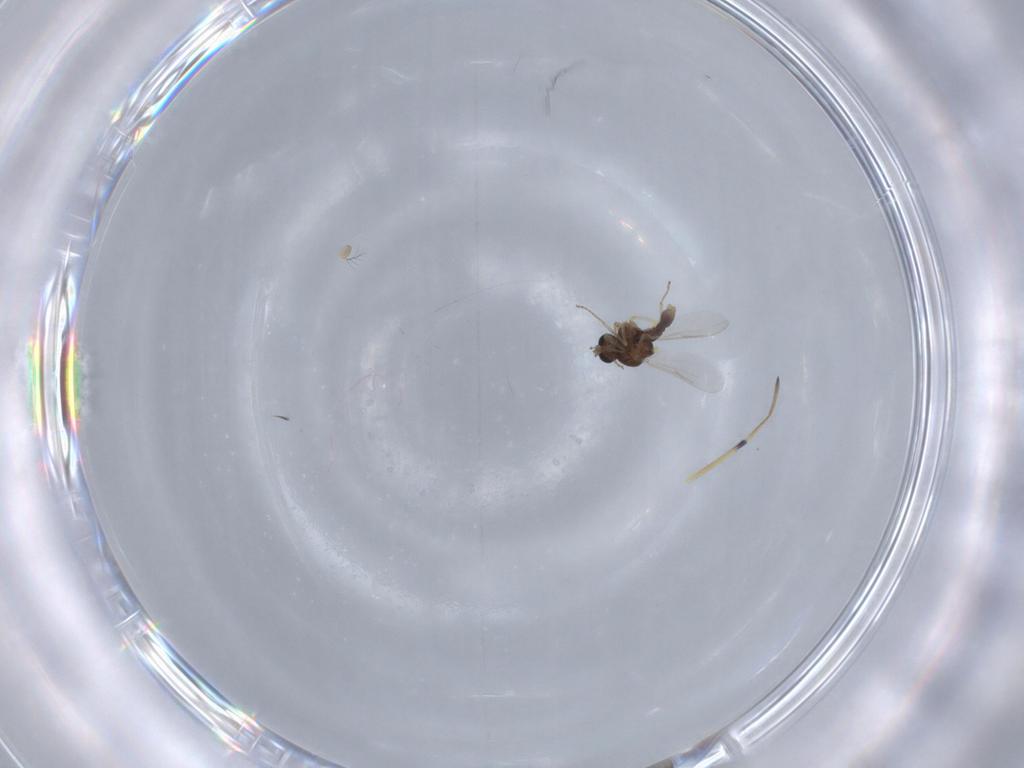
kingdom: Animalia
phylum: Arthropoda
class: Insecta
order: Diptera
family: Ceratopogonidae
